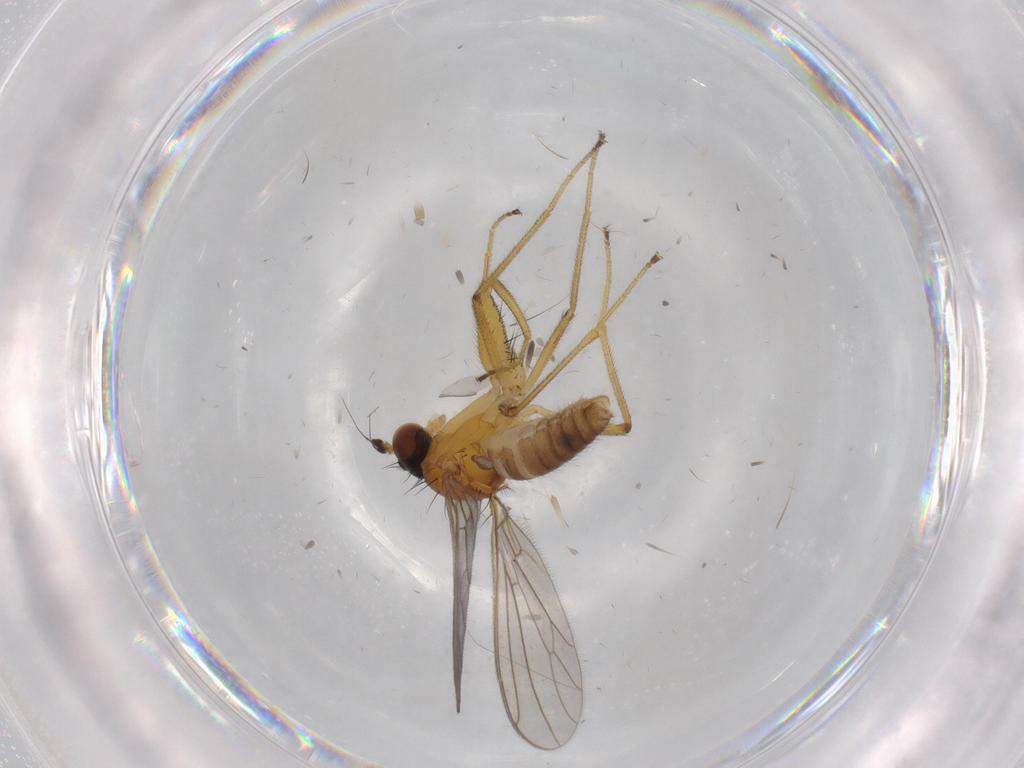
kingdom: Animalia
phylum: Arthropoda
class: Insecta
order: Diptera
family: Empididae
